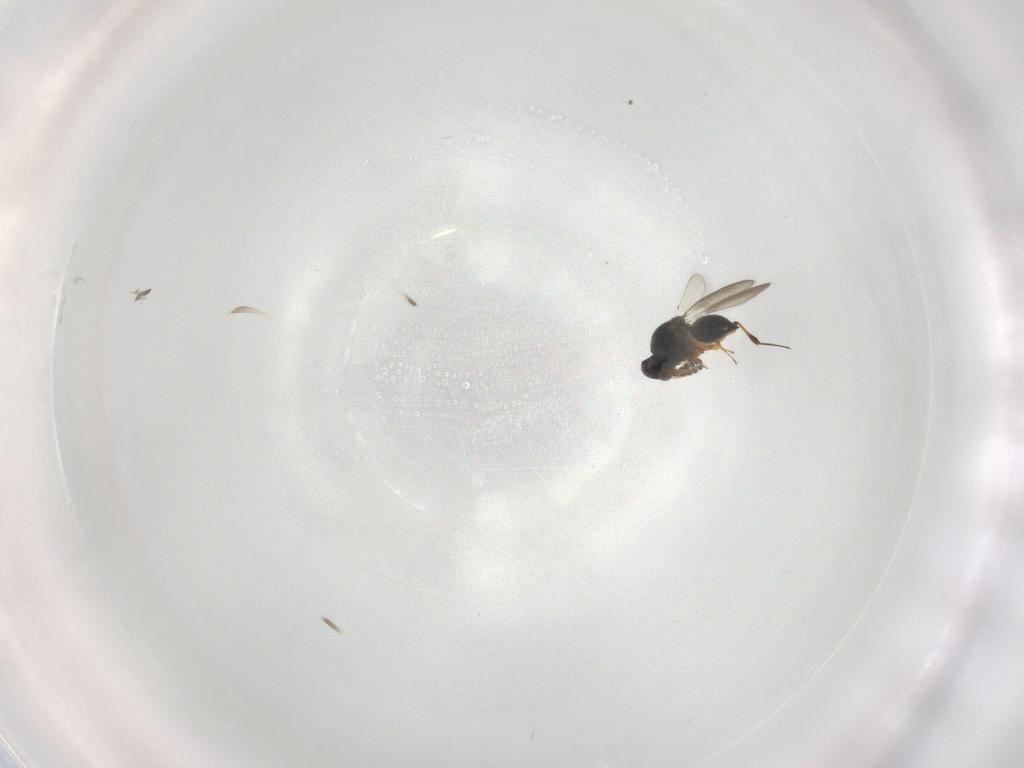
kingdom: Animalia
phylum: Arthropoda
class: Insecta
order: Hymenoptera
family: Platygastridae
